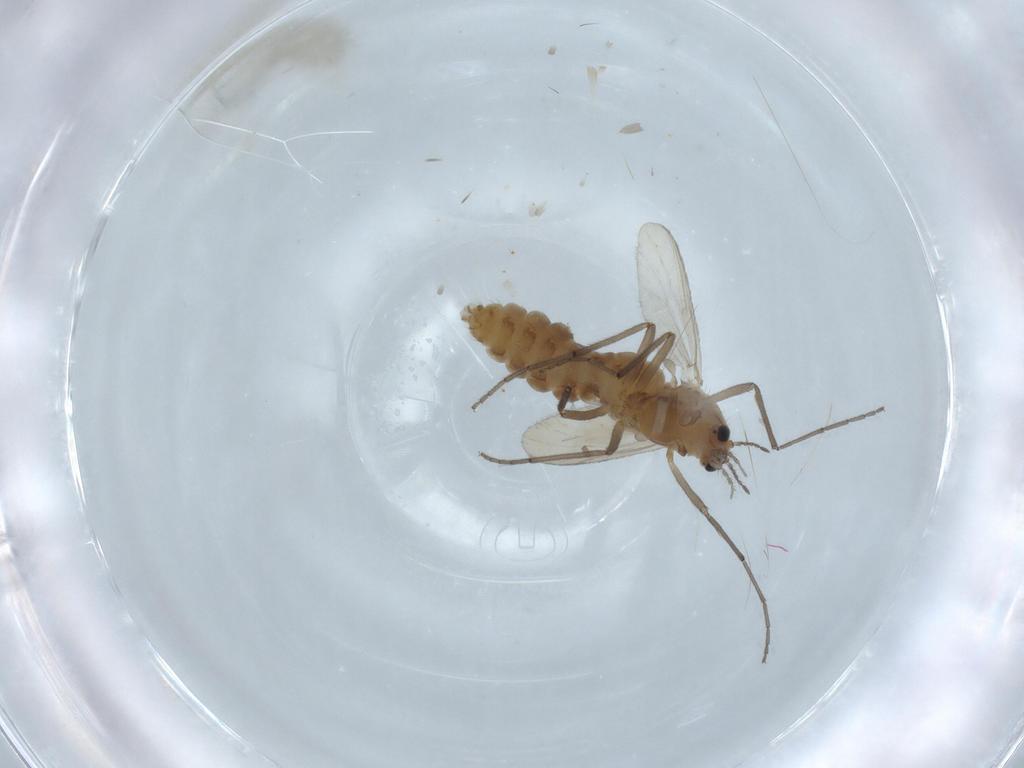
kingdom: Animalia
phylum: Arthropoda
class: Insecta
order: Diptera
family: Chironomidae
